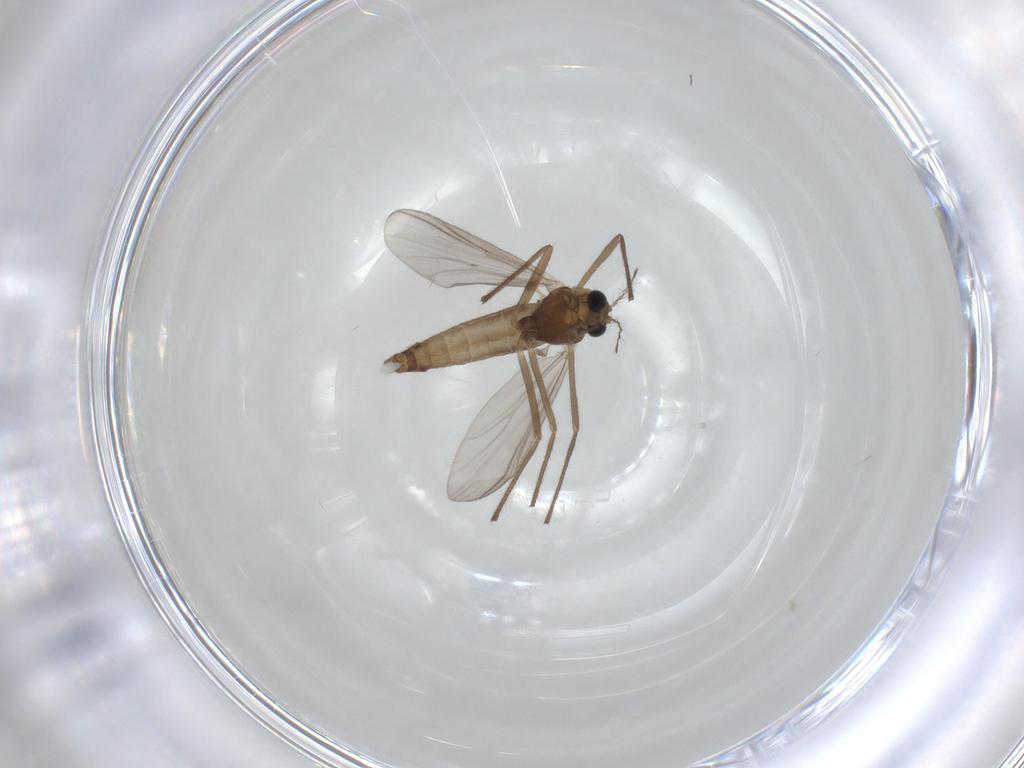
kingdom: Animalia
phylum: Arthropoda
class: Insecta
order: Diptera
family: Chironomidae
